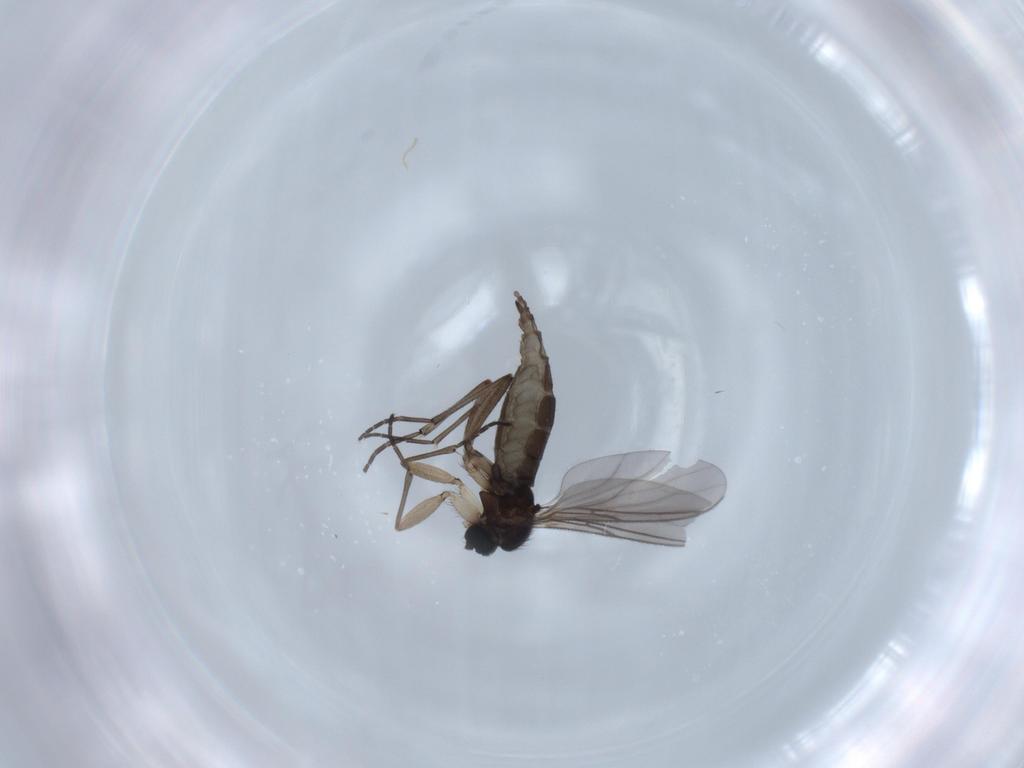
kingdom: Animalia
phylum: Arthropoda
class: Insecta
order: Diptera
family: Sciaridae
